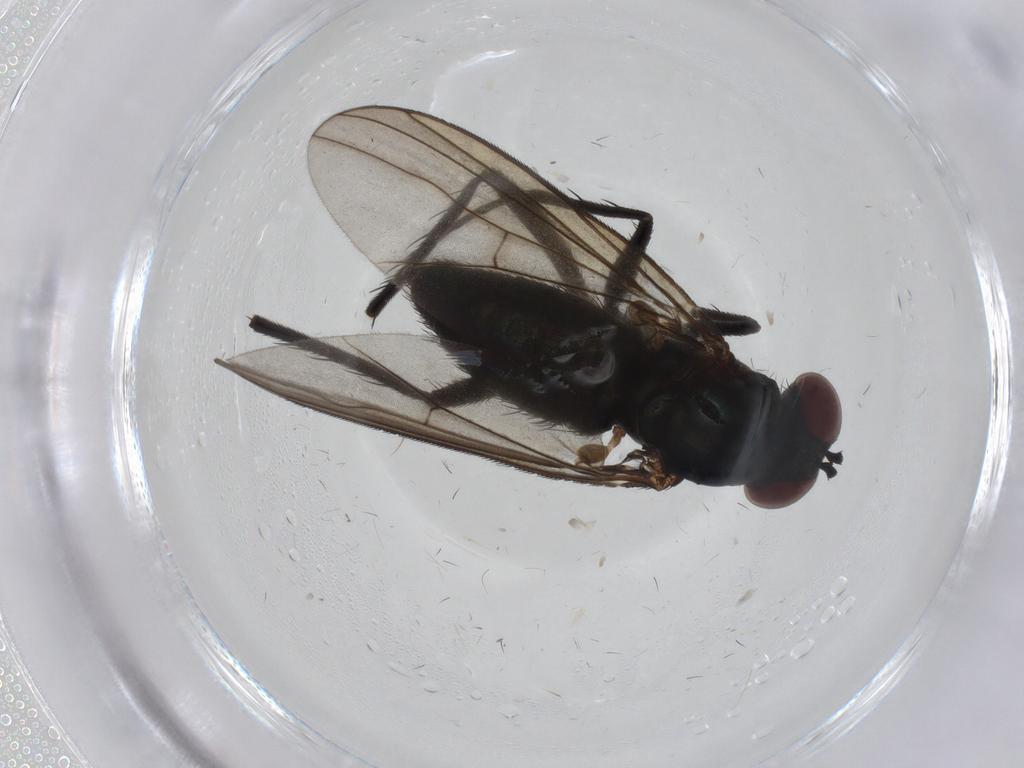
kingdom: Animalia
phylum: Arthropoda
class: Insecta
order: Diptera
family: Dolichopodidae
